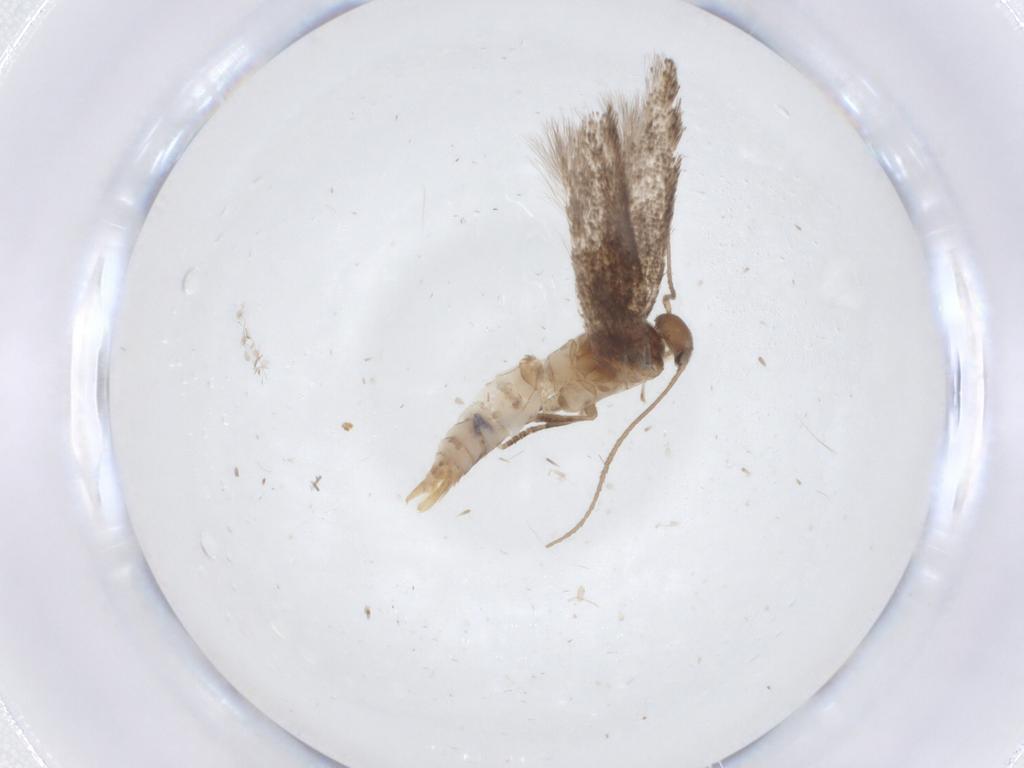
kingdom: Animalia
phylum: Arthropoda
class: Insecta
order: Lepidoptera
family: Elachistidae
